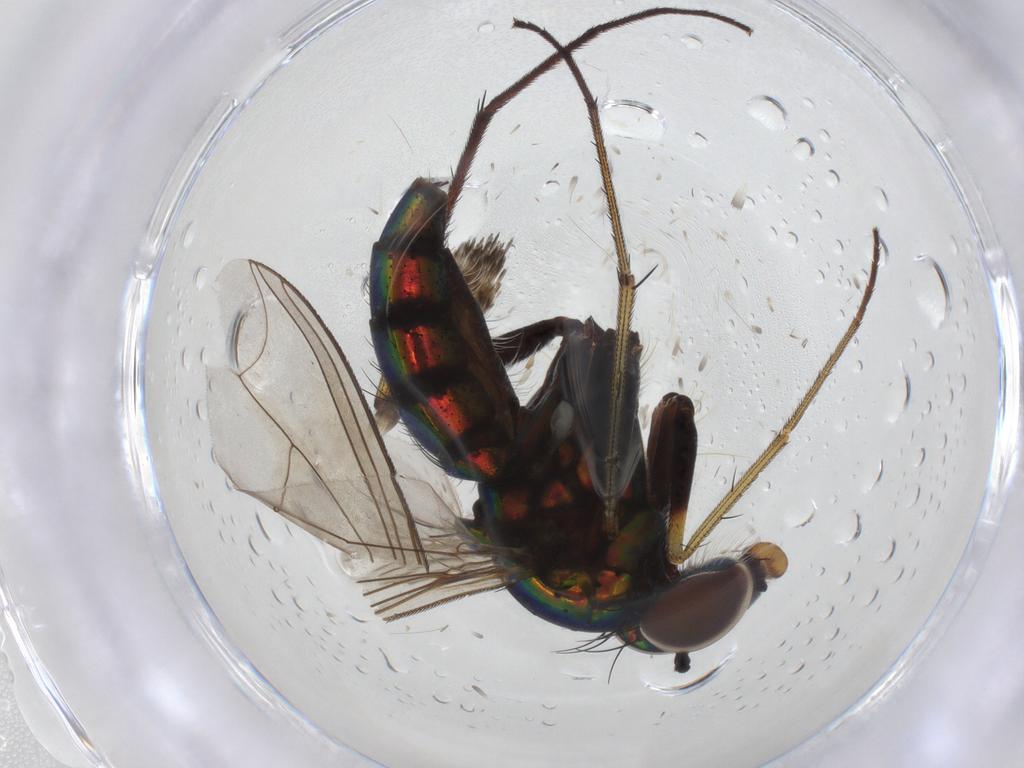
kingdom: Animalia
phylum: Arthropoda
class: Insecta
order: Diptera
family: Dolichopodidae
